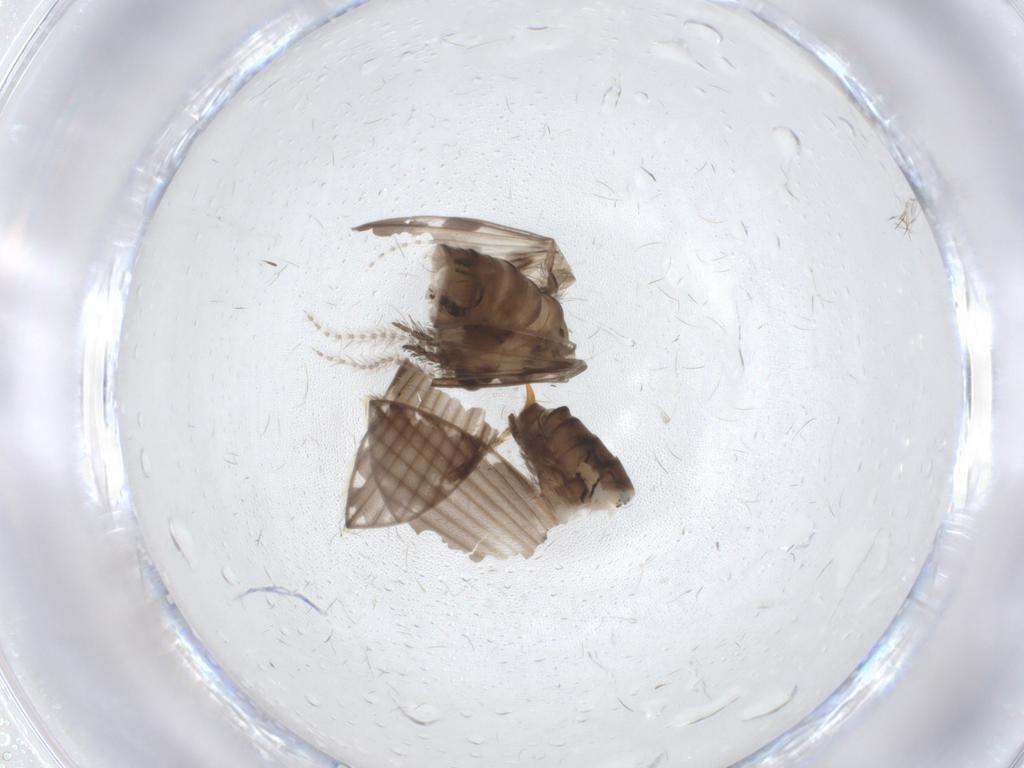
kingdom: Animalia
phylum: Arthropoda
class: Insecta
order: Diptera
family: Psychodidae
